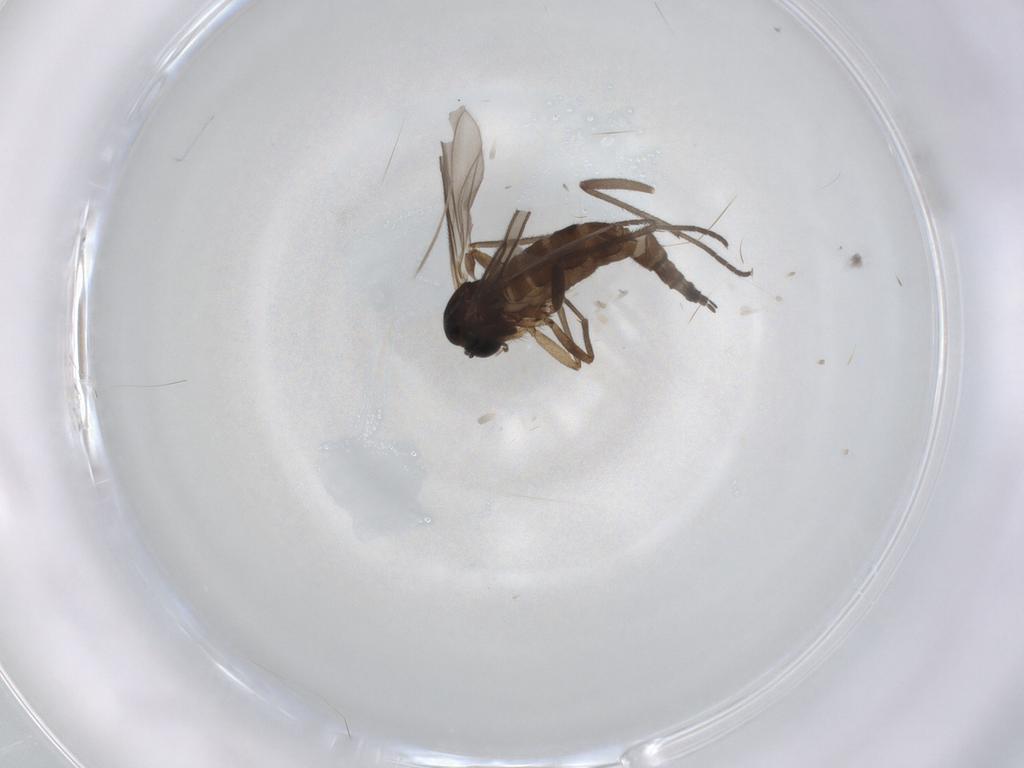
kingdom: Animalia
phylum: Arthropoda
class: Insecta
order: Diptera
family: Sciaridae
